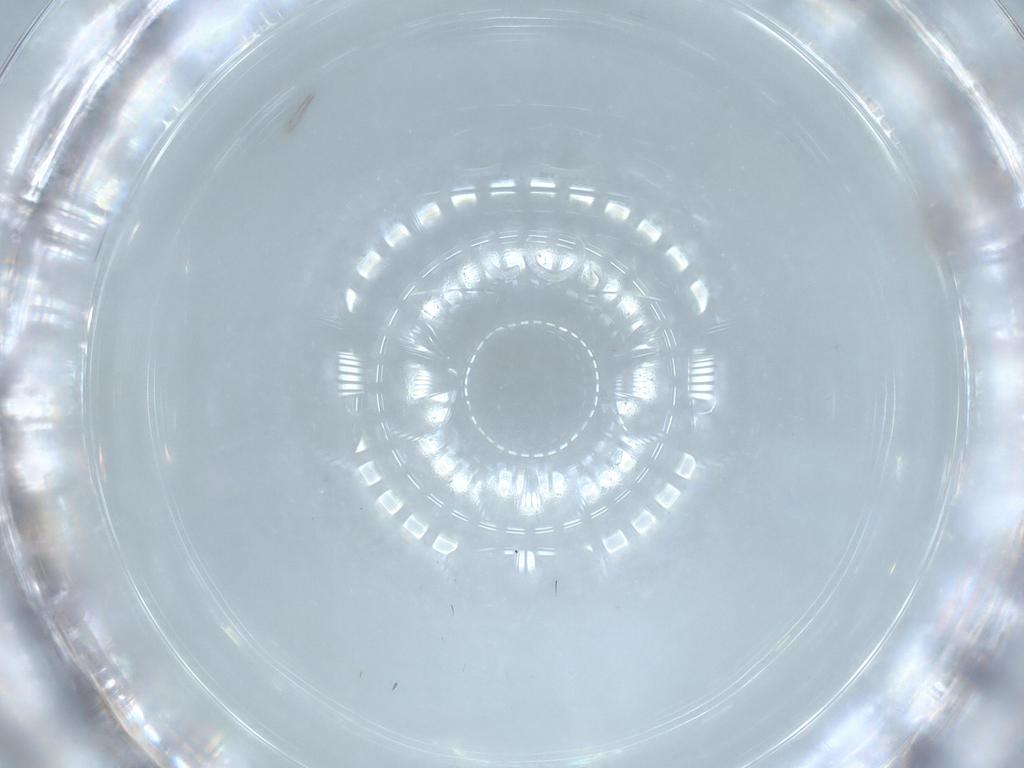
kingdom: Animalia
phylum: Arthropoda
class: Insecta
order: Hymenoptera
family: Mymaridae
